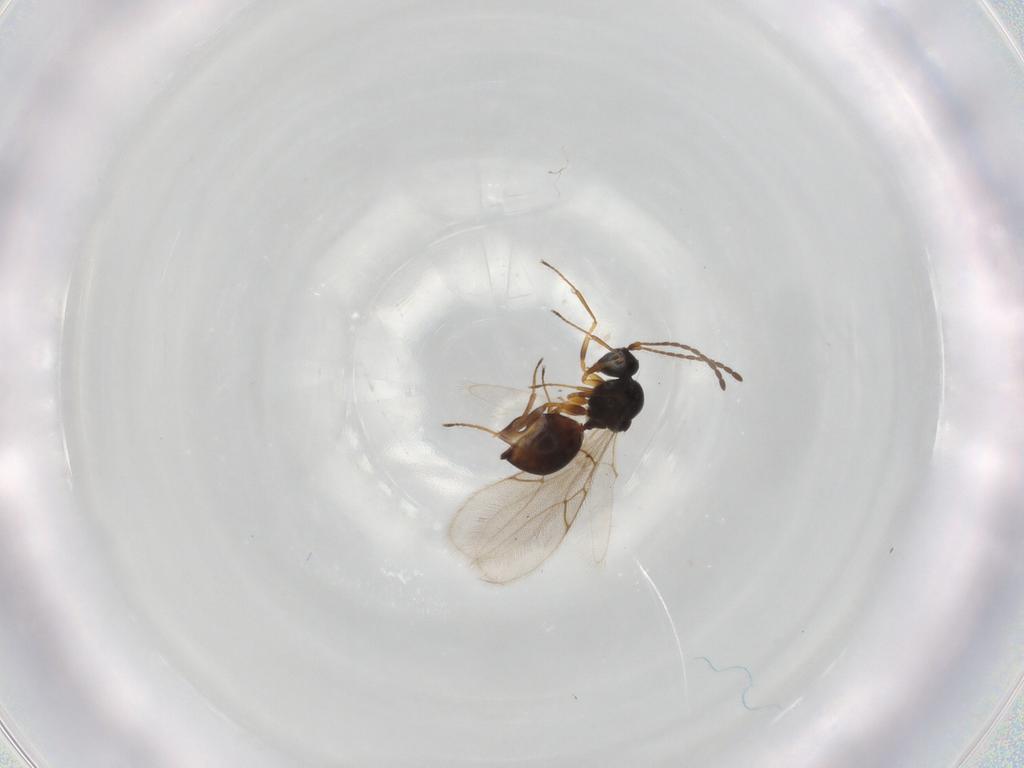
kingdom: Animalia
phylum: Arthropoda
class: Insecta
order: Hymenoptera
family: Figitidae
